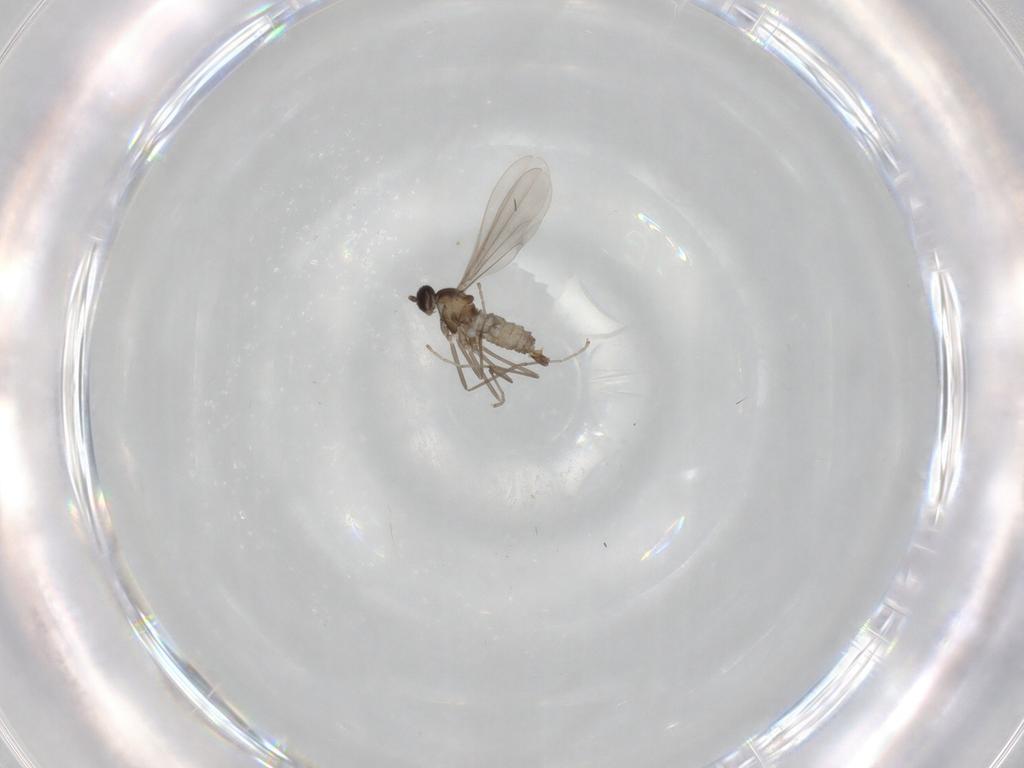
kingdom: Animalia
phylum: Arthropoda
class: Insecta
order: Diptera
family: Cecidomyiidae
